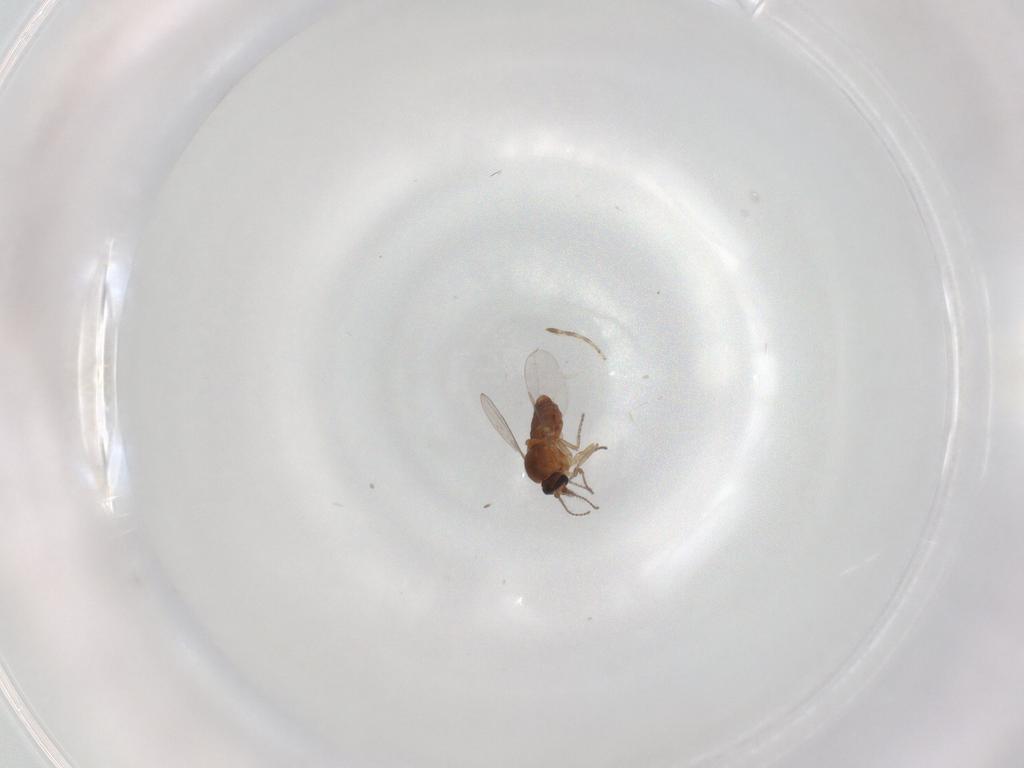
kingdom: Animalia
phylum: Arthropoda
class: Insecta
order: Diptera
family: Ceratopogonidae
